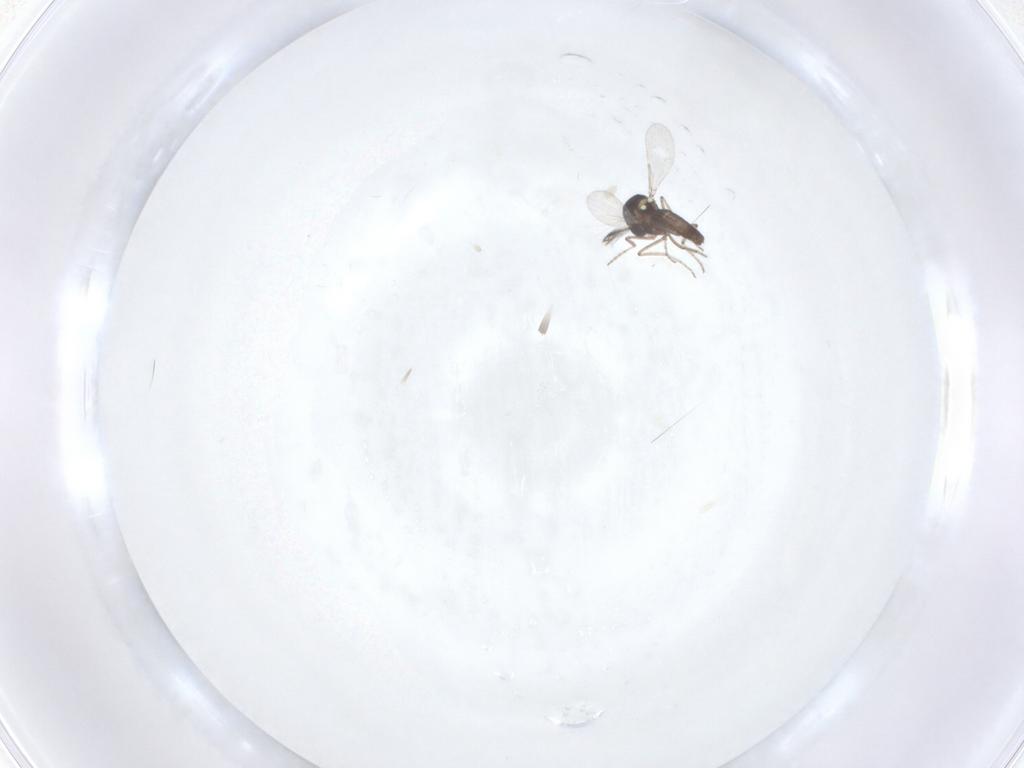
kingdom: Animalia
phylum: Arthropoda
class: Insecta
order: Diptera
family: Ceratopogonidae
